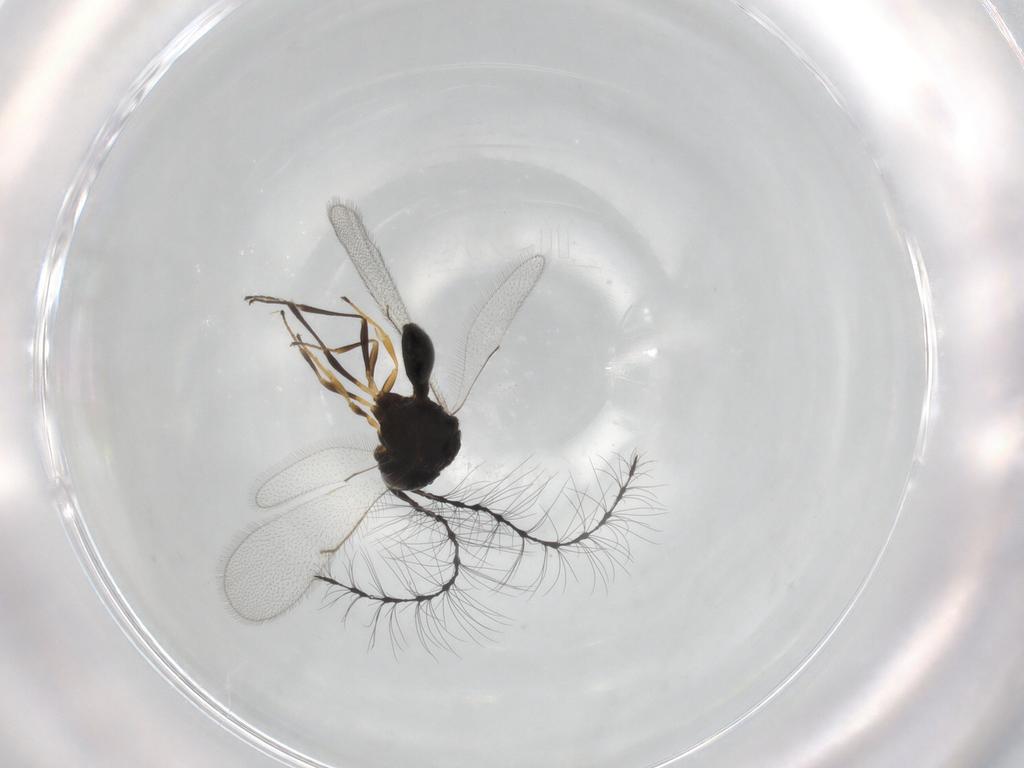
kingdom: Animalia
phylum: Arthropoda
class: Insecta
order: Hymenoptera
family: Scelionidae
